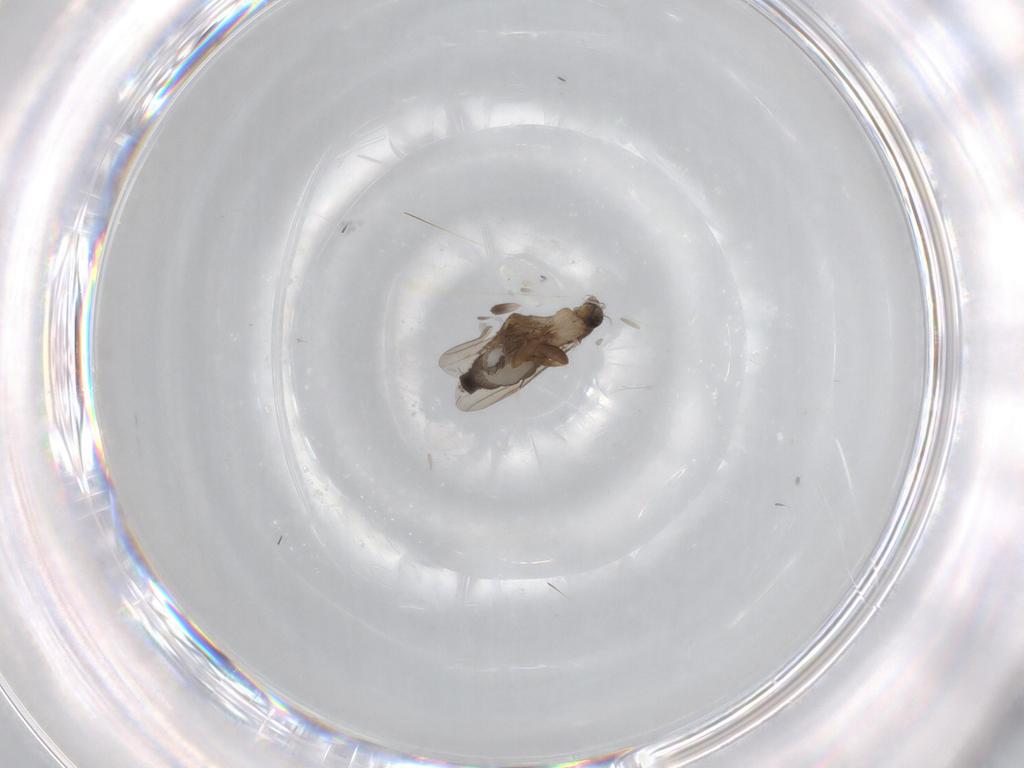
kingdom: Animalia
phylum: Arthropoda
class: Insecta
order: Diptera
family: Phoridae
